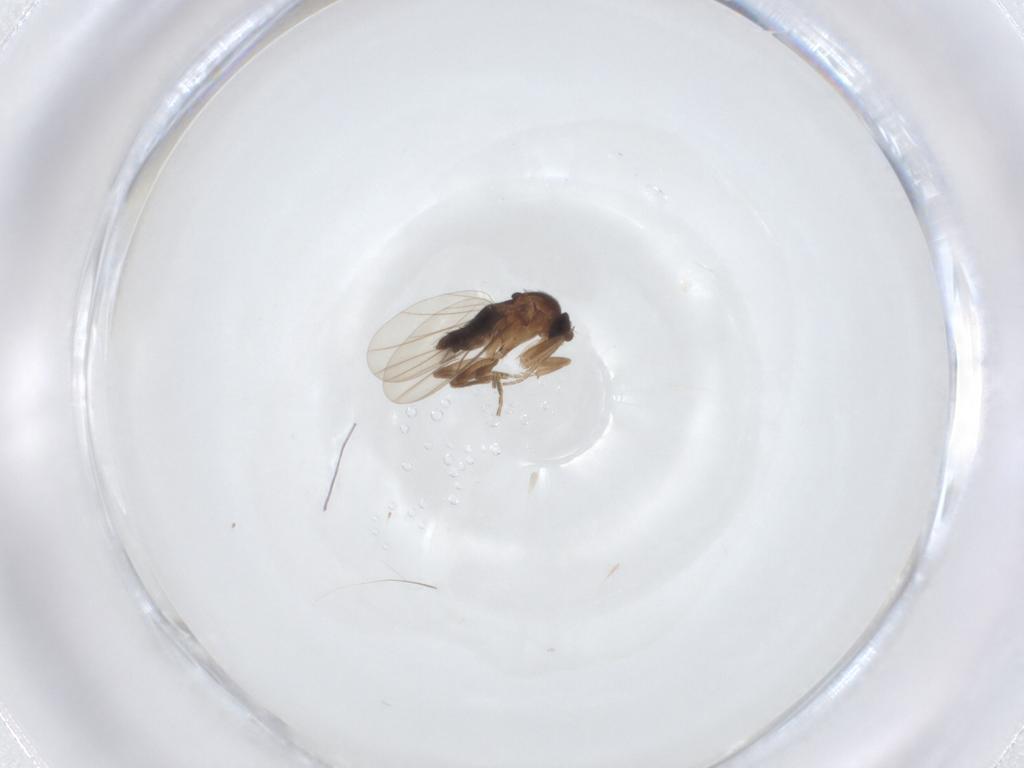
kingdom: Animalia
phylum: Arthropoda
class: Insecta
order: Diptera
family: Phoridae
